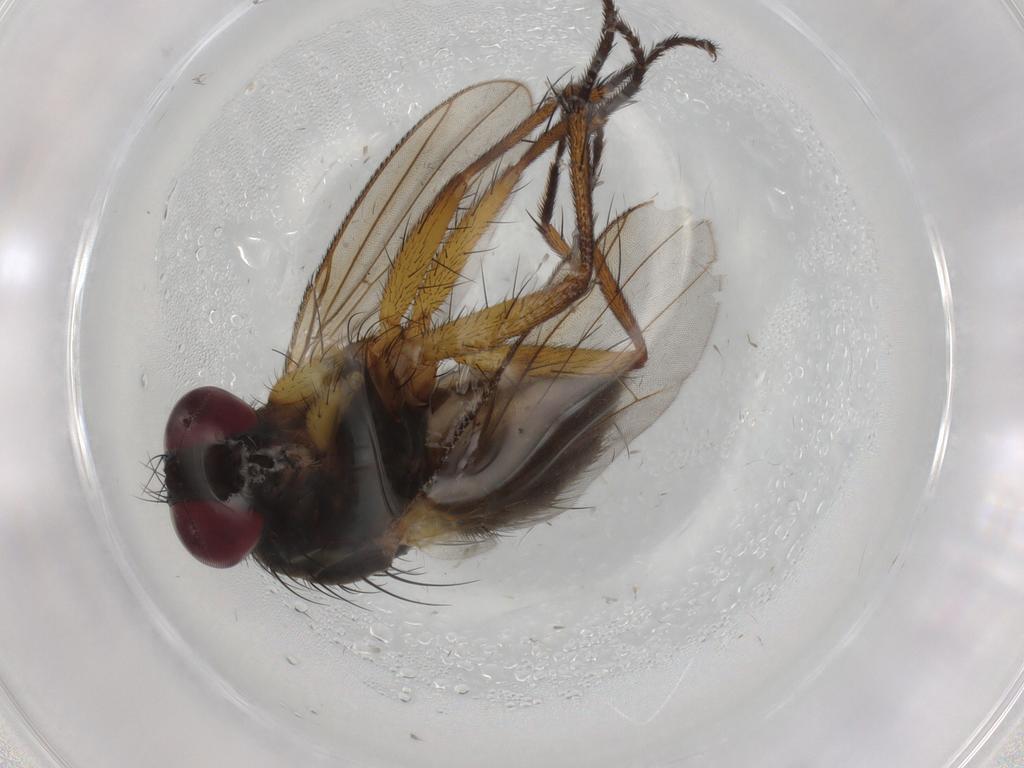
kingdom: Animalia
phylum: Arthropoda
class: Insecta
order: Diptera
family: Muscidae
